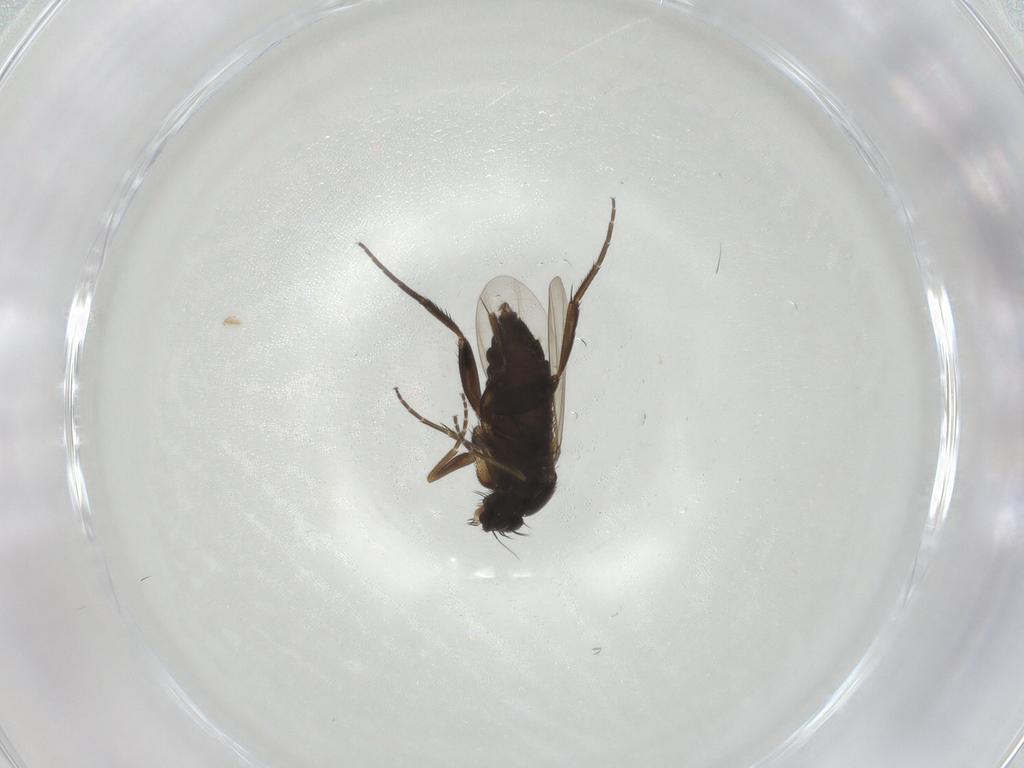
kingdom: Animalia
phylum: Arthropoda
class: Insecta
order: Diptera
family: Phoridae
